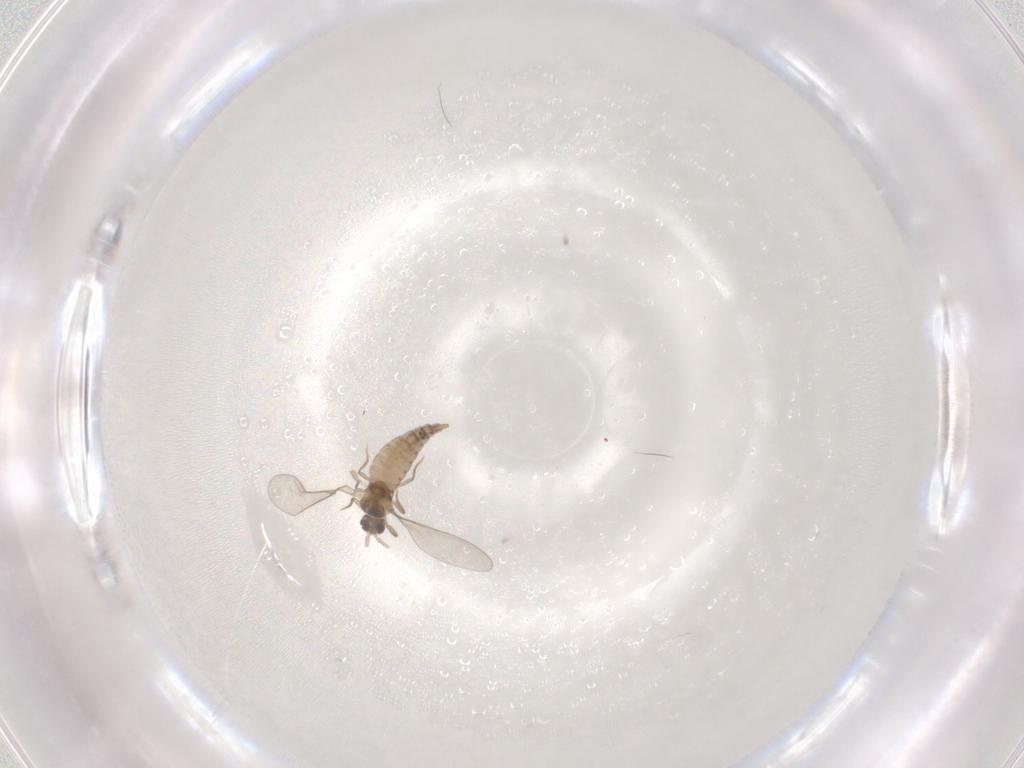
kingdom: Animalia
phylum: Arthropoda
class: Insecta
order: Diptera
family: Cecidomyiidae
